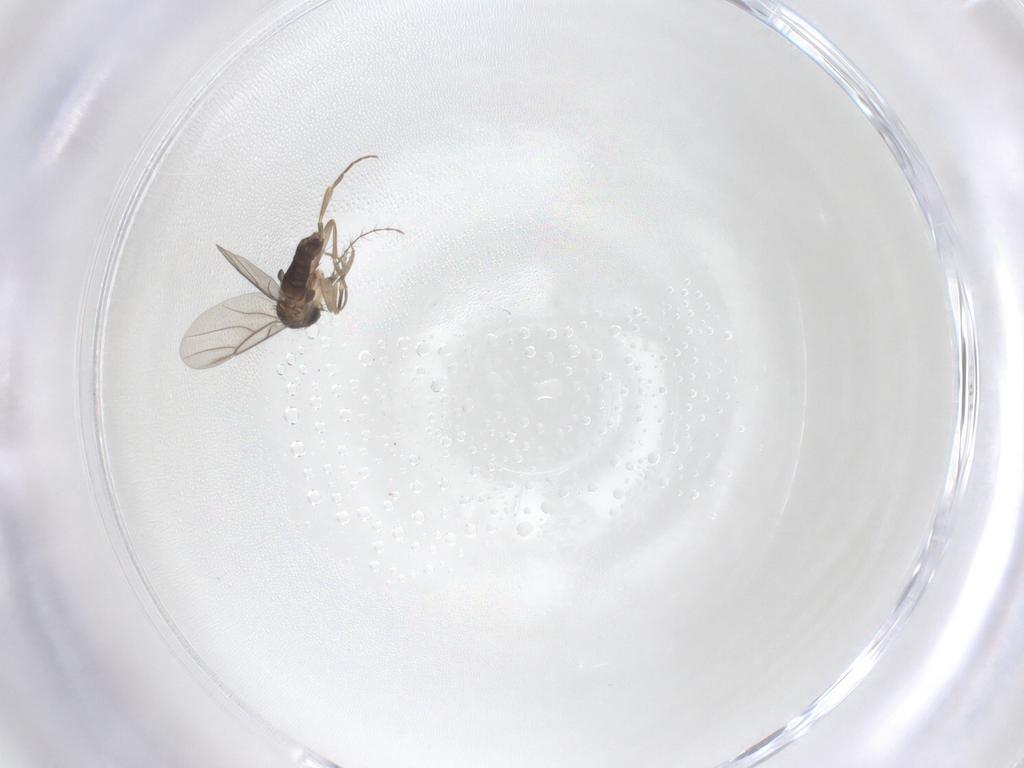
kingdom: Animalia
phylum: Arthropoda
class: Insecta
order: Diptera
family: Phoridae
